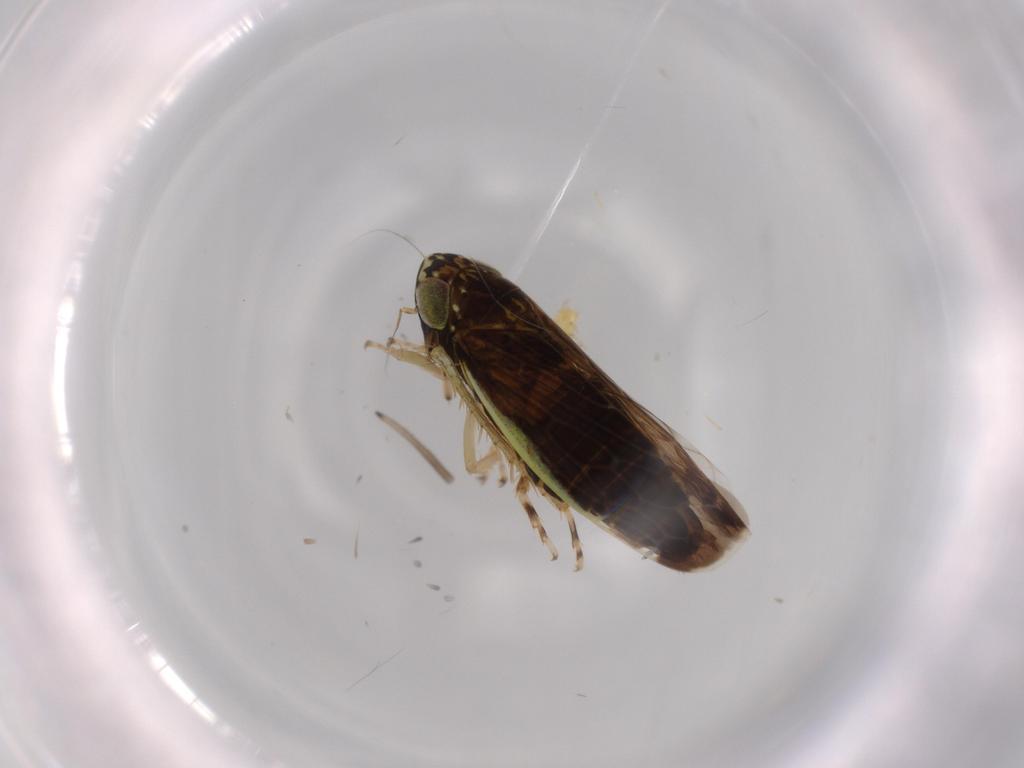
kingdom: Animalia
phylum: Arthropoda
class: Insecta
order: Hemiptera
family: Cicadellidae
